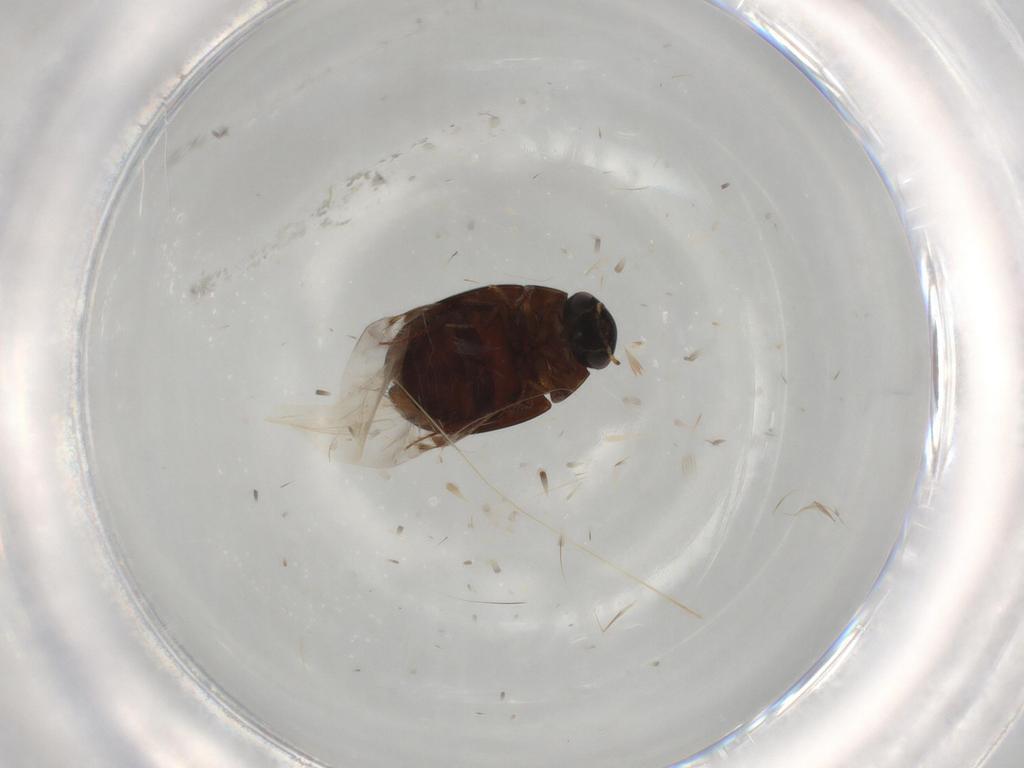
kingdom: Animalia
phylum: Arthropoda
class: Insecta
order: Coleoptera
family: Hydrophilidae
